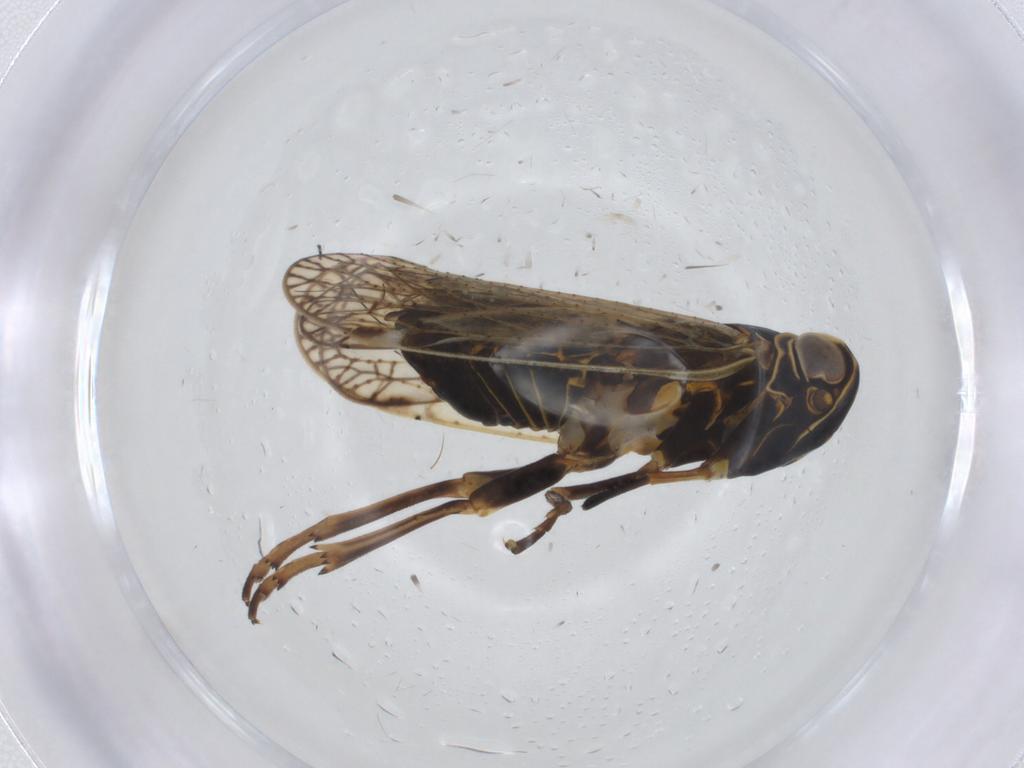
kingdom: Animalia
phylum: Arthropoda
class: Insecta
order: Hemiptera
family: Cixiidae
